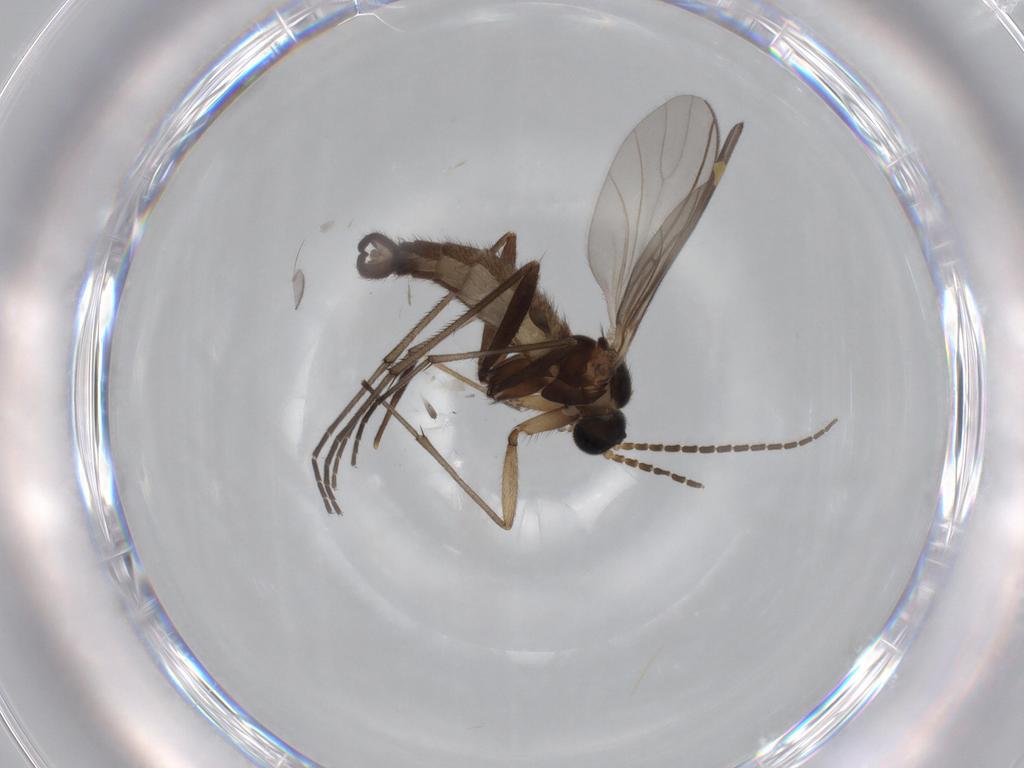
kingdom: Animalia
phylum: Arthropoda
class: Insecta
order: Diptera
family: Sciaridae
